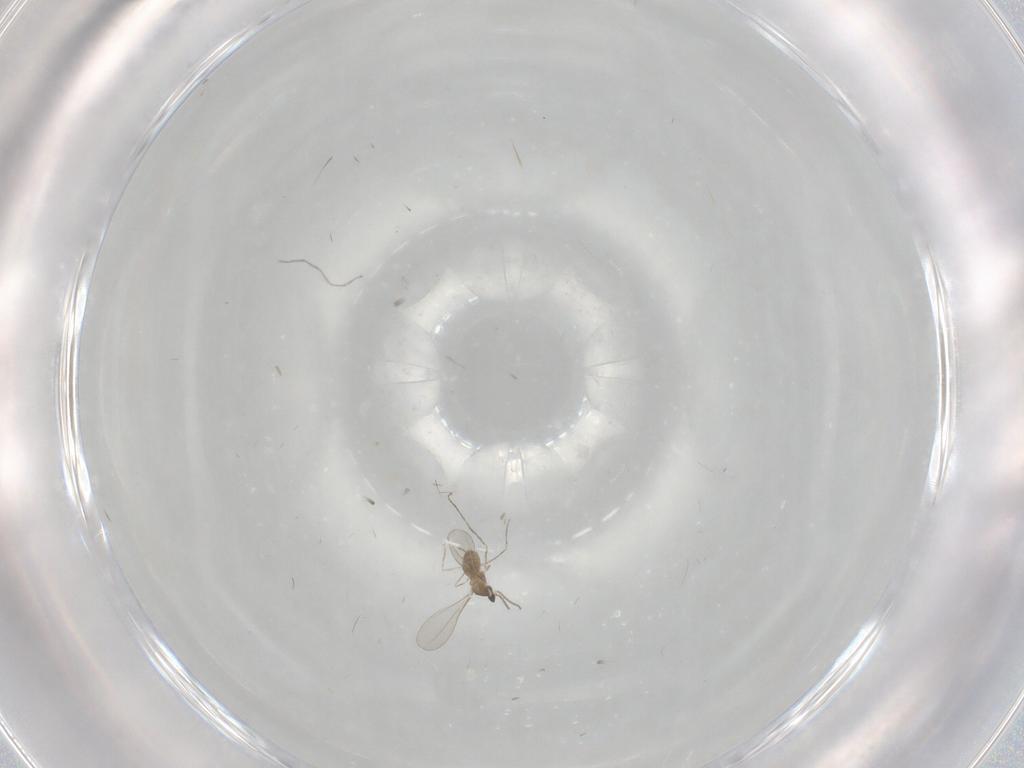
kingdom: Animalia
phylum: Arthropoda
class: Insecta
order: Diptera
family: Cecidomyiidae
